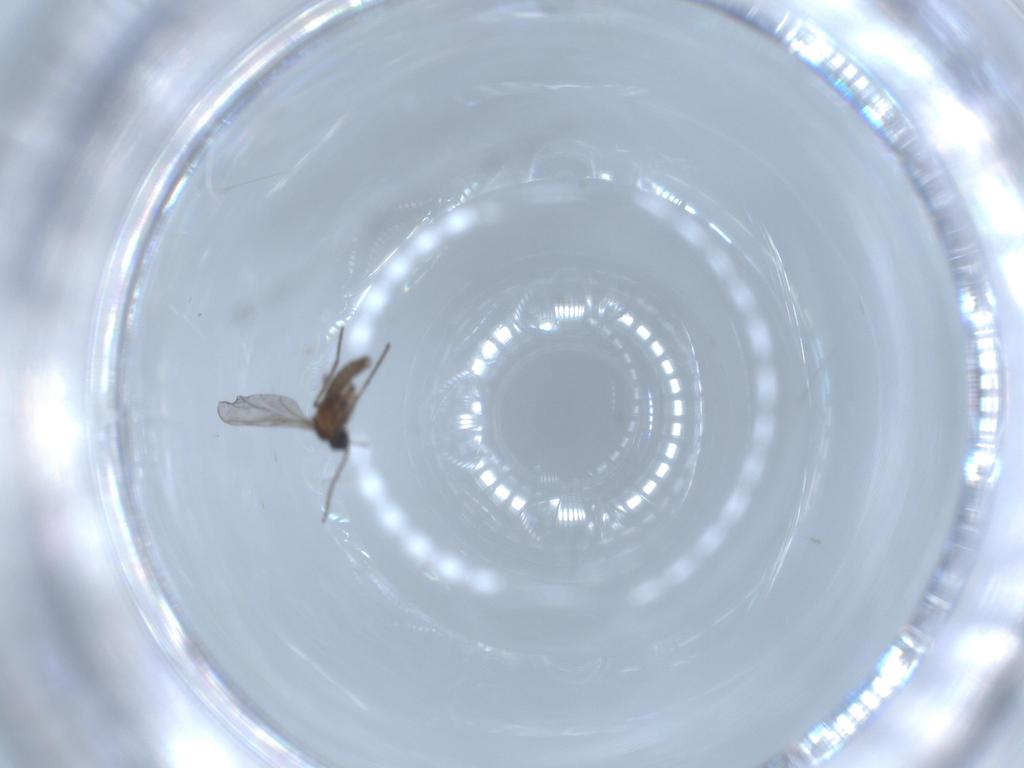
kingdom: Animalia
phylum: Arthropoda
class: Insecta
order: Diptera
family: Sciaridae
